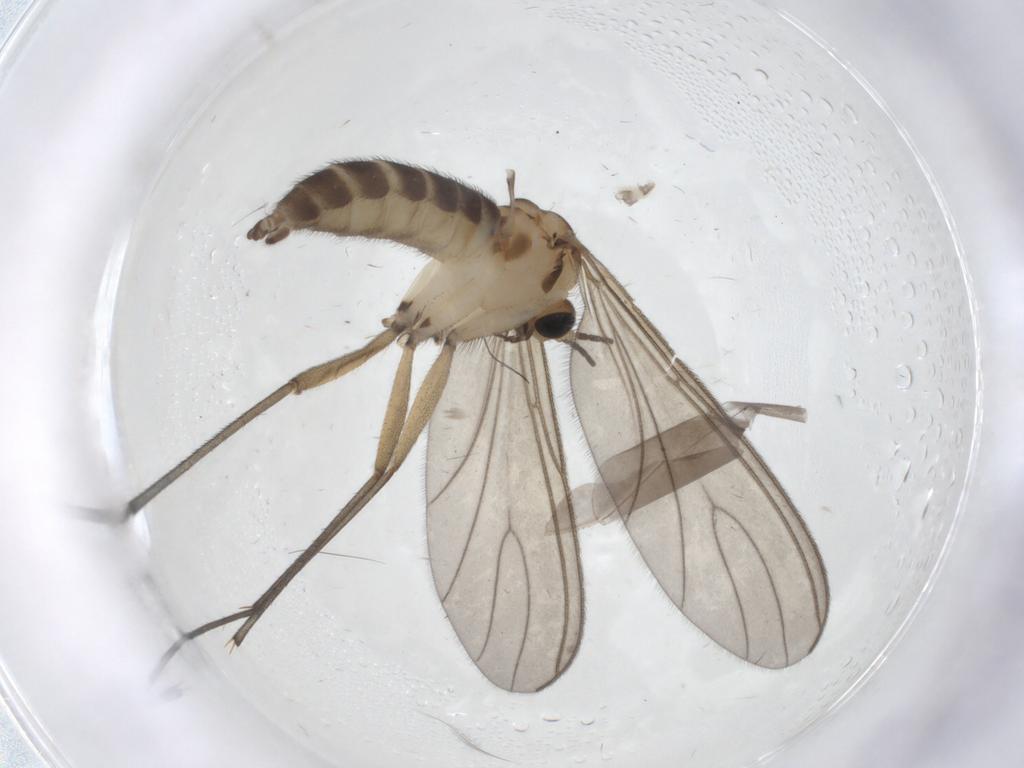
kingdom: Animalia
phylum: Arthropoda
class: Insecta
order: Diptera
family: Sciaridae
